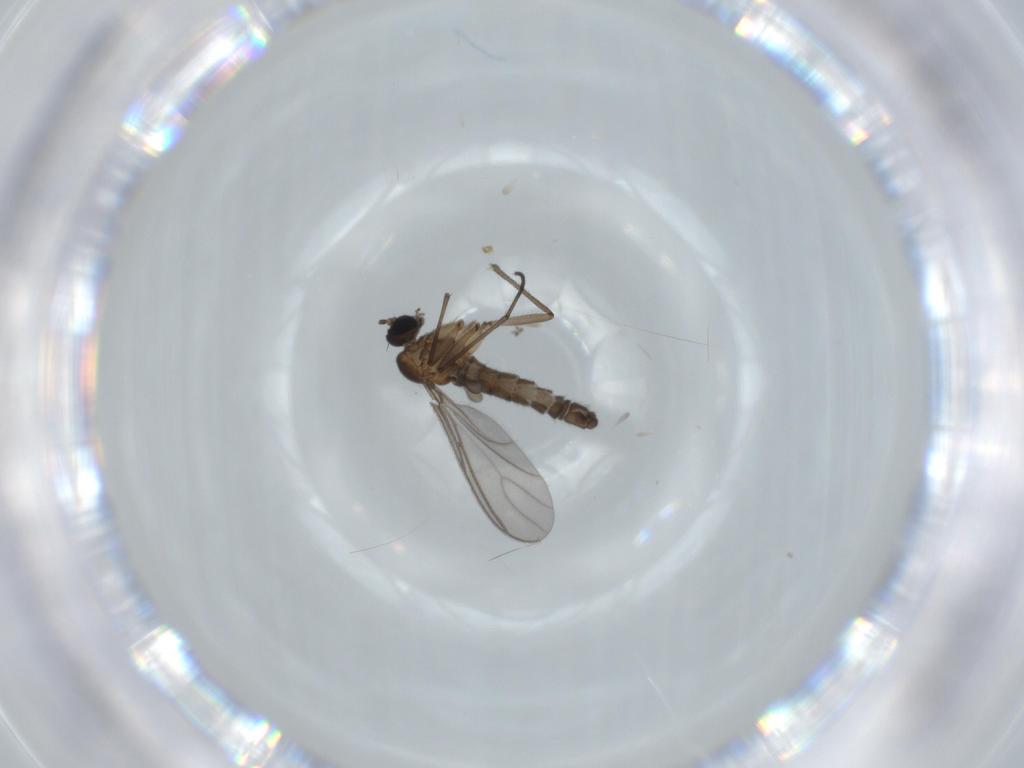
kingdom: Animalia
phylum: Arthropoda
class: Insecta
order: Diptera
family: Sciaridae
